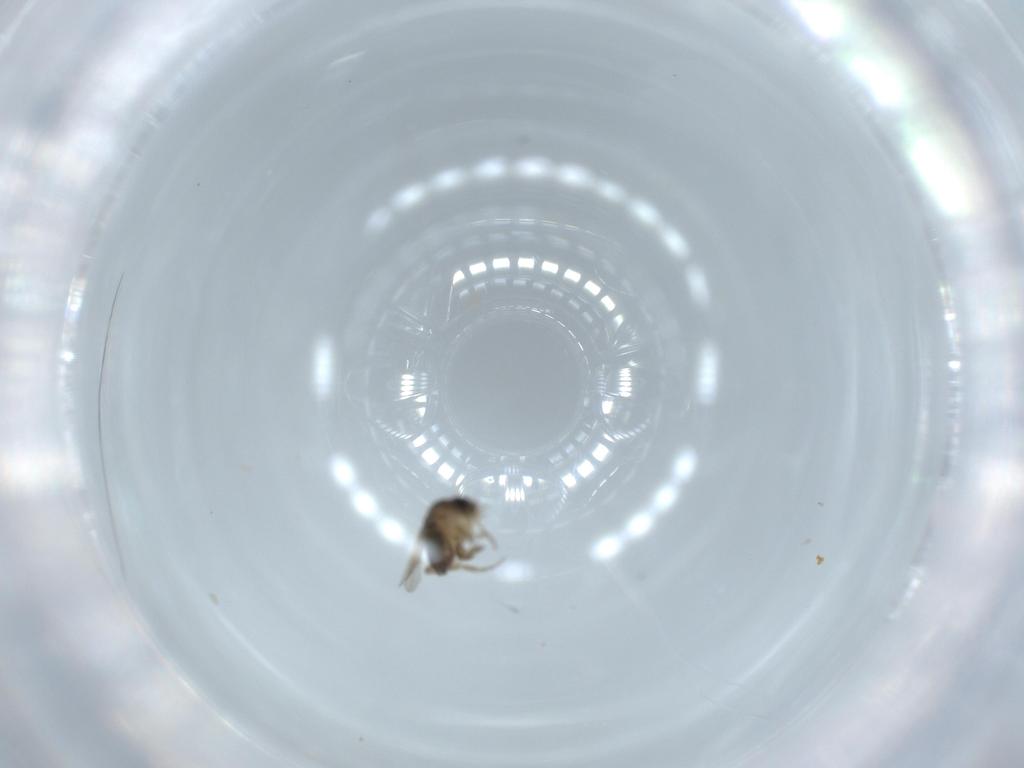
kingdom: Animalia
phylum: Arthropoda
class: Insecta
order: Diptera
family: Phoridae
